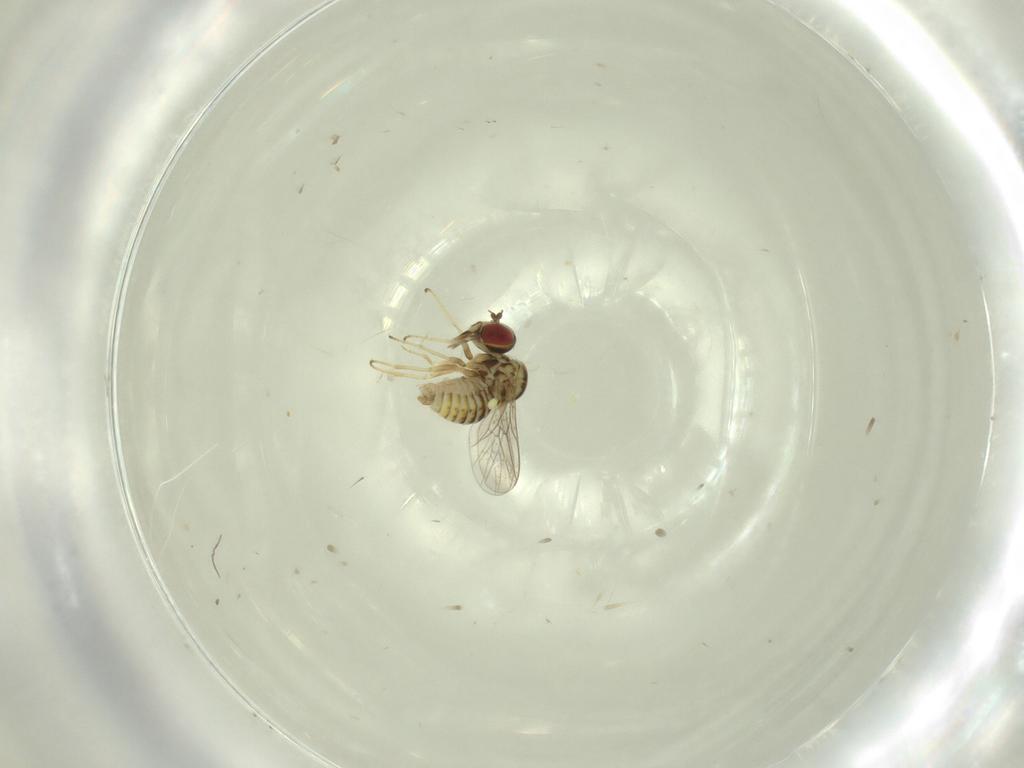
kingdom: Animalia
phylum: Arthropoda
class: Insecta
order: Diptera
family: Bombyliidae
